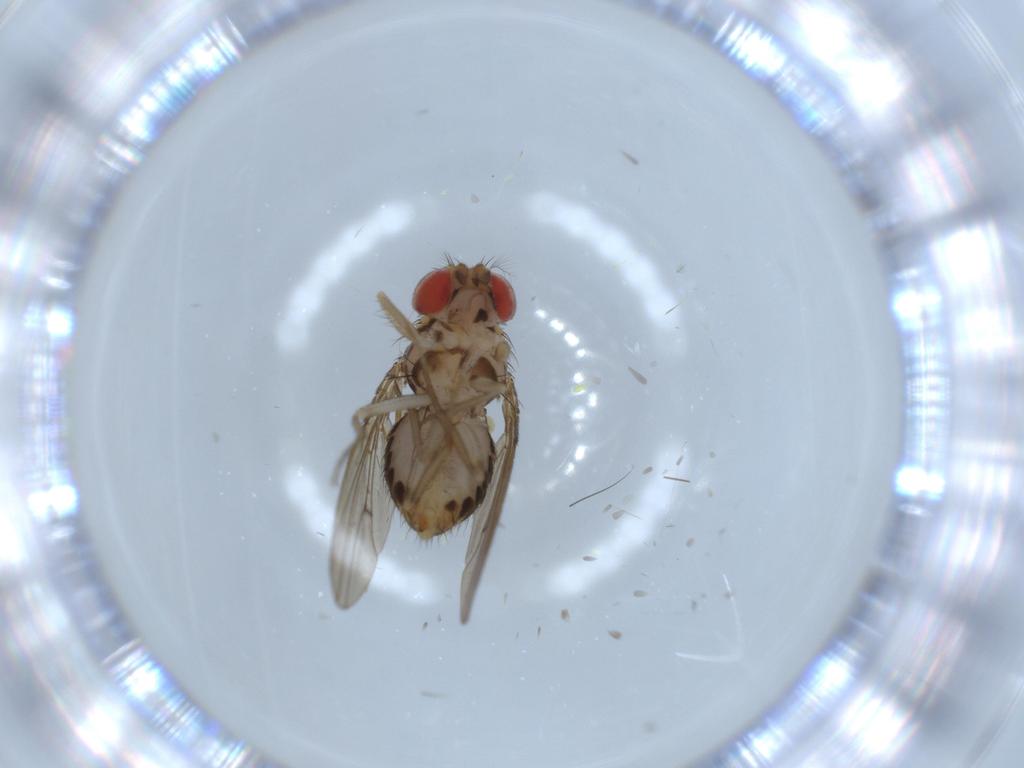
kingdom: Animalia
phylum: Arthropoda
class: Insecta
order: Diptera
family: Drosophilidae
